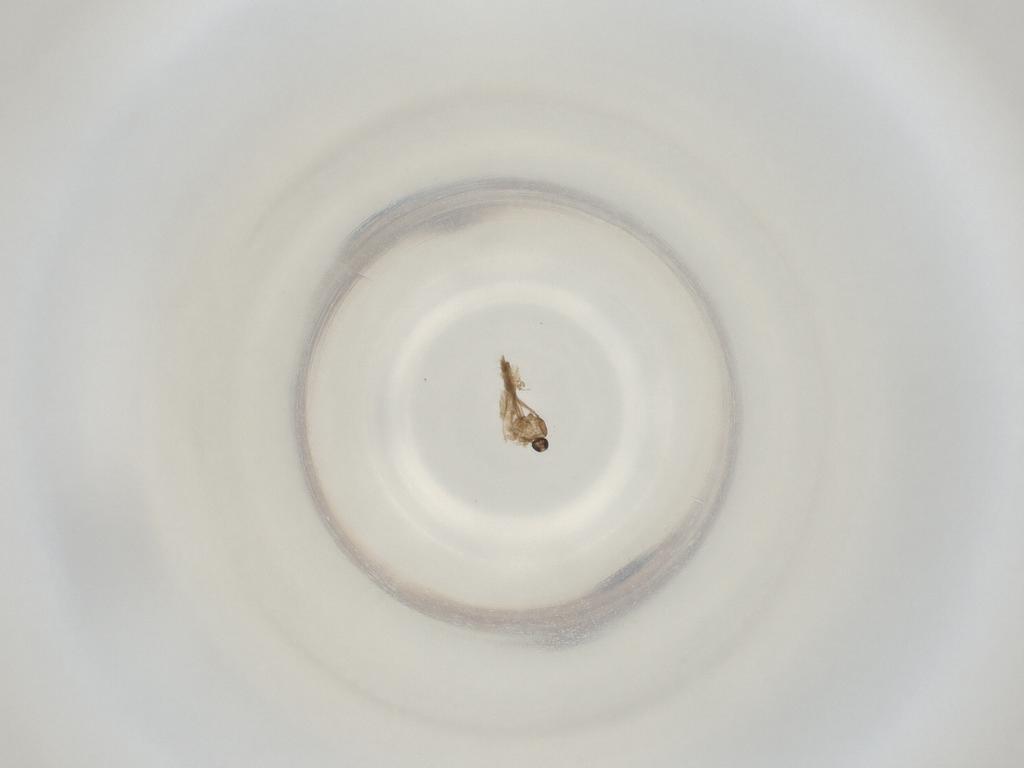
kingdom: Animalia
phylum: Arthropoda
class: Insecta
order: Diptera
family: Cecidomyiidae
